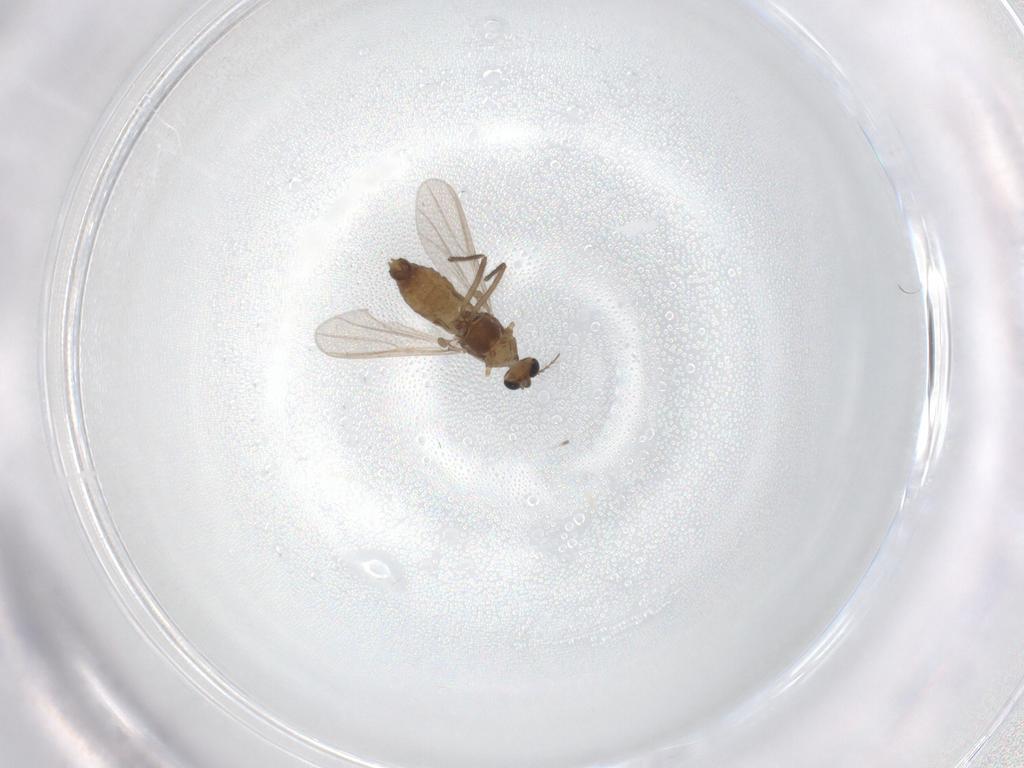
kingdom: Animalia
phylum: Arthropoda
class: Insecta
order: Diptera
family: Chironomidae
